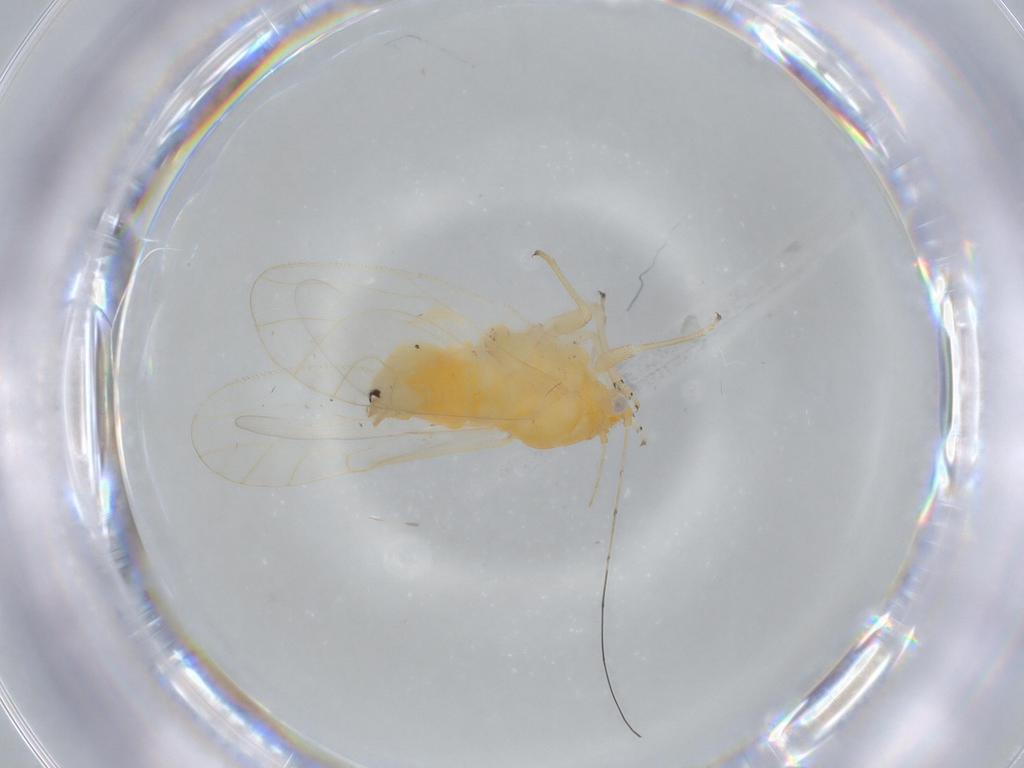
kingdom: Animalia
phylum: Arthropoda
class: Insecta
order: Hemiptera
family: Psyllidae
